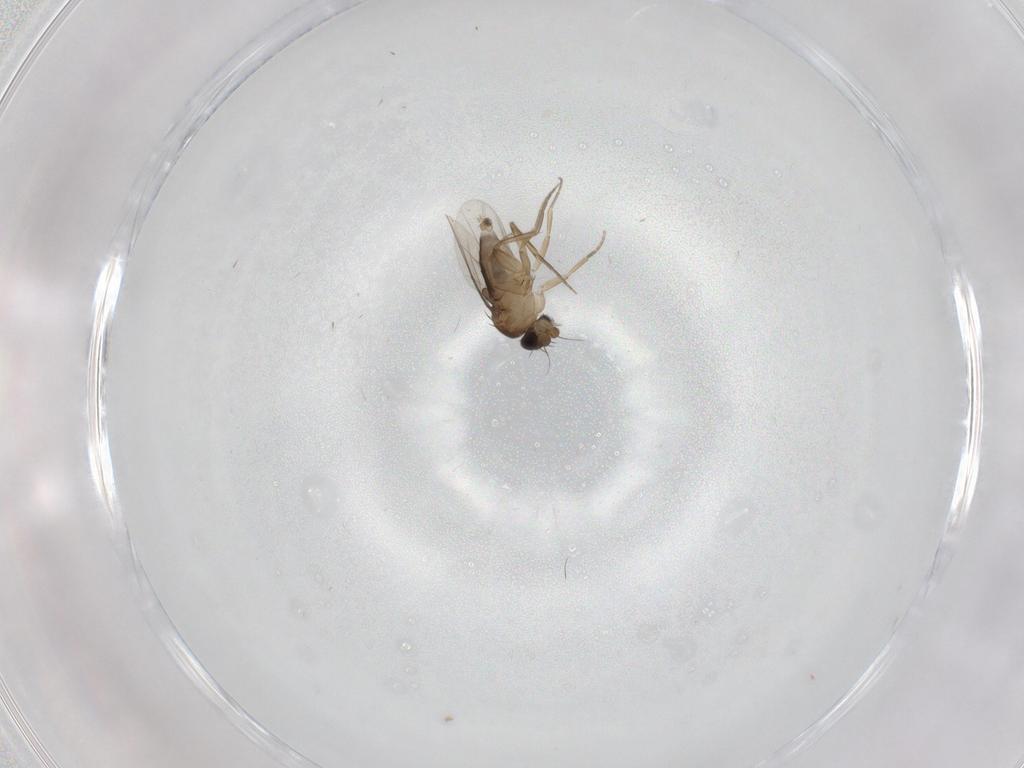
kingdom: Animalia
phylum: Arthropoda
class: Insecta
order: Diptera
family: Phoridae
